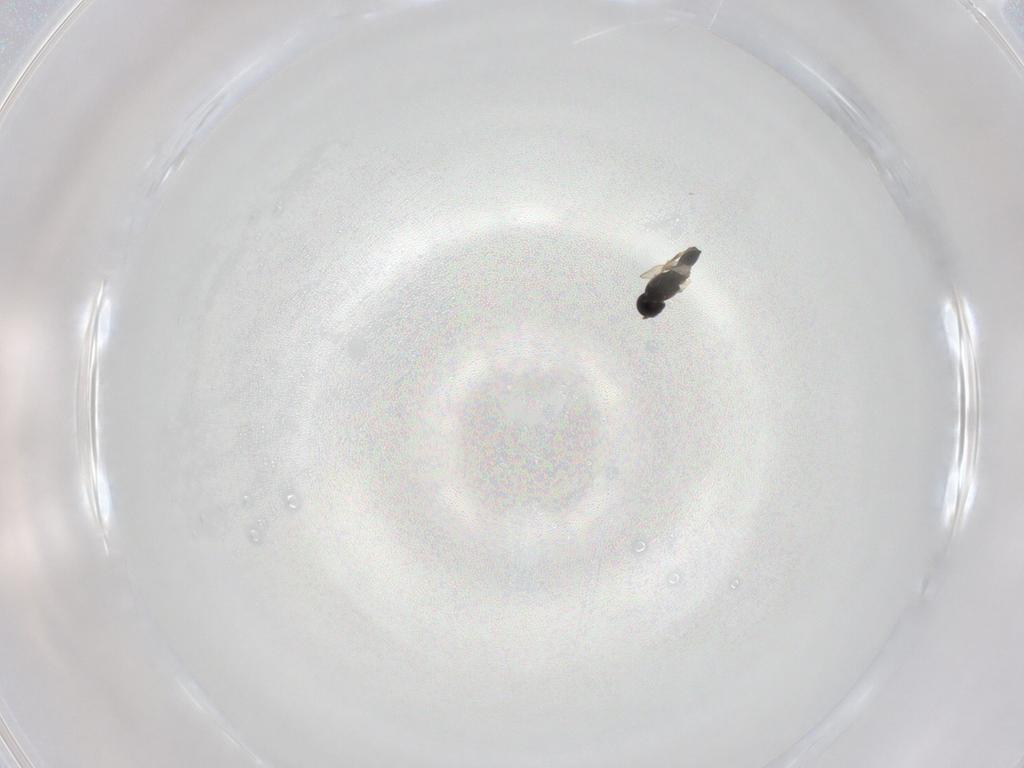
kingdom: Animalia
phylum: Arthropoda
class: Insecta
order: Hymenoptera
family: Scelionidae
